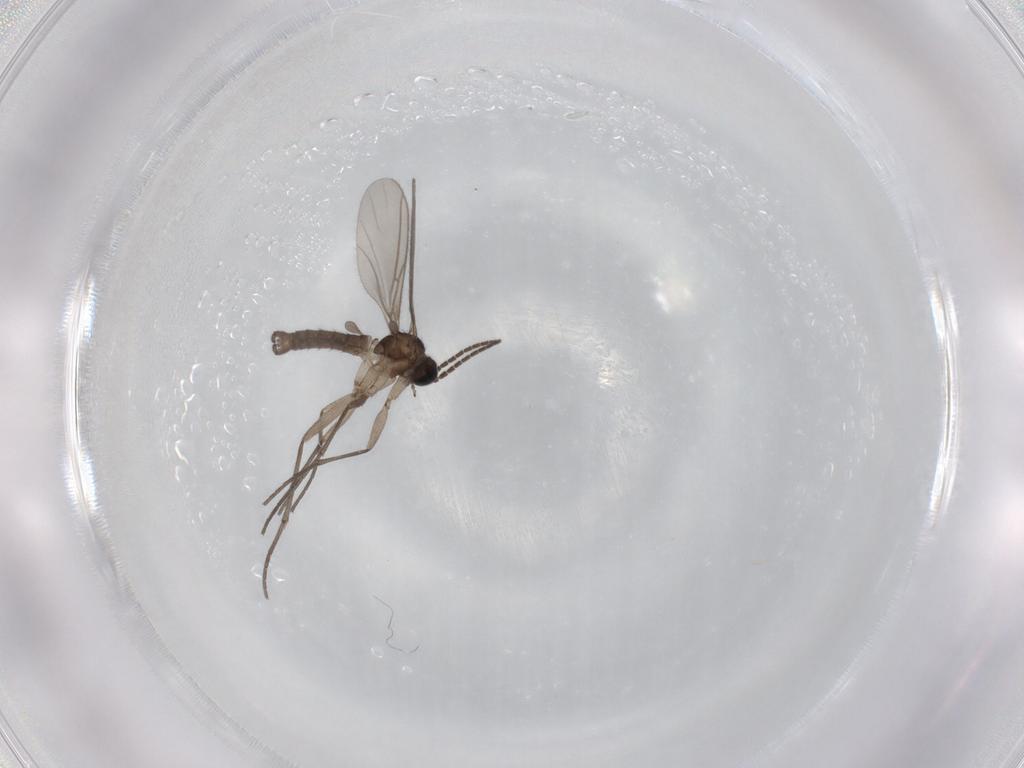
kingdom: Animalia
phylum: Arthropoda
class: Insecta
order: Diptera
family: Sciaridae
